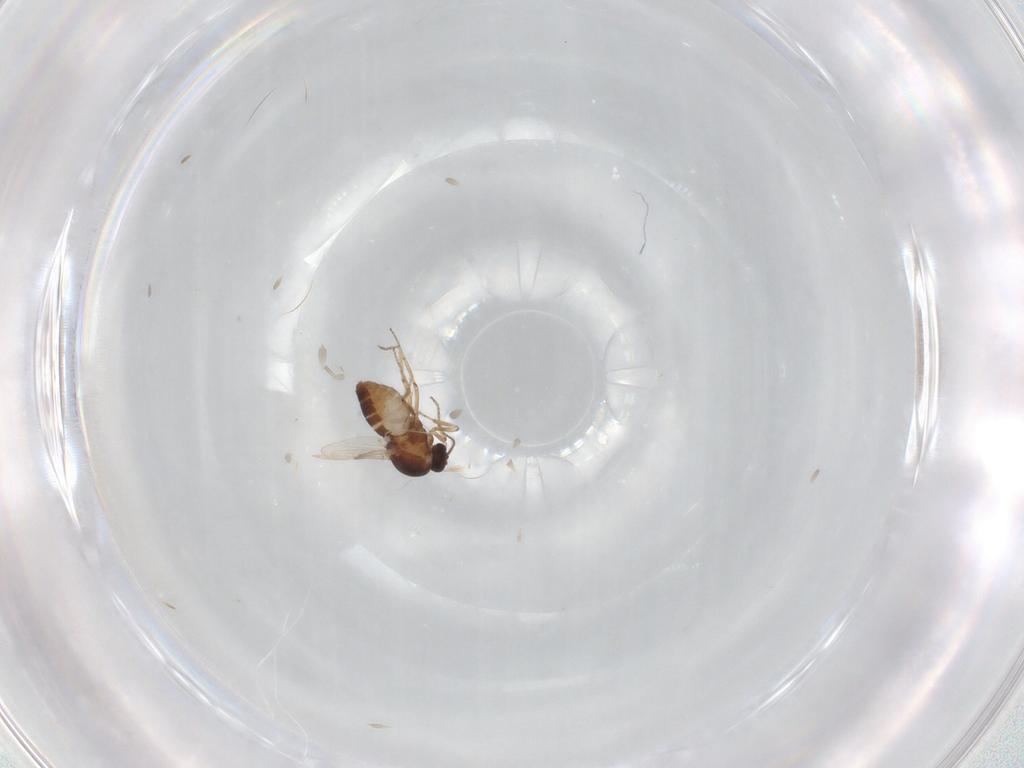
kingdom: Animalia
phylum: Arthropoda
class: Insecta
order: Diptera
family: Ceratopogonidae
